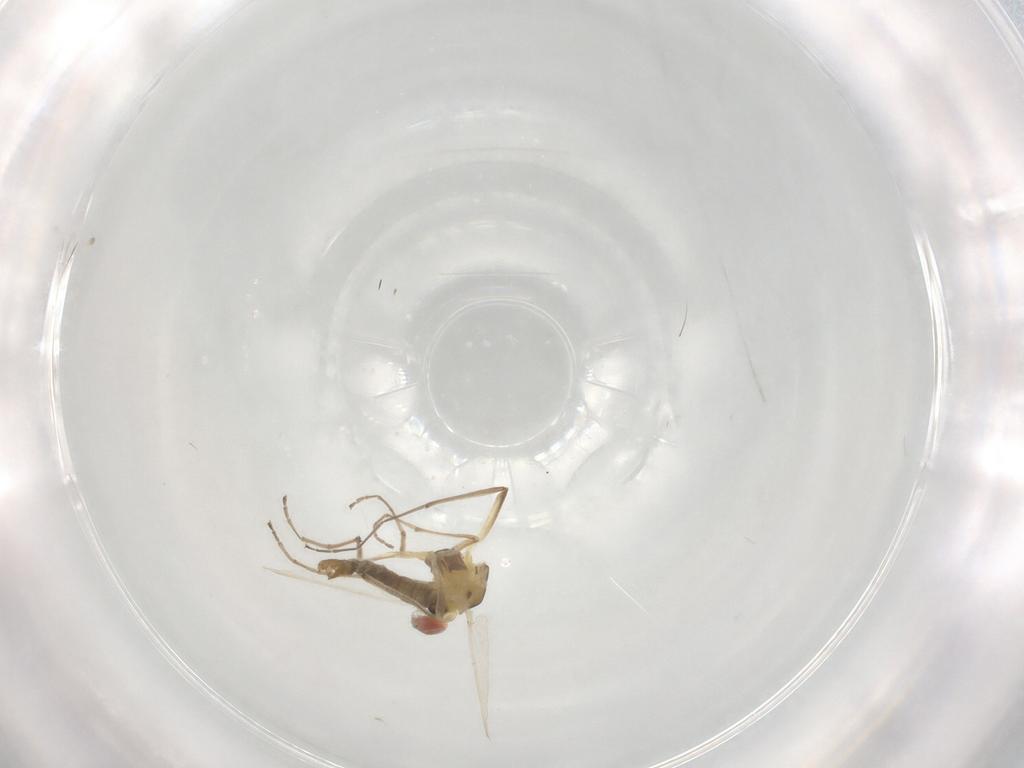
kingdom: Animalia
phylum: Arthropoda
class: Insecta
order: Diptera
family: Chironomidae
